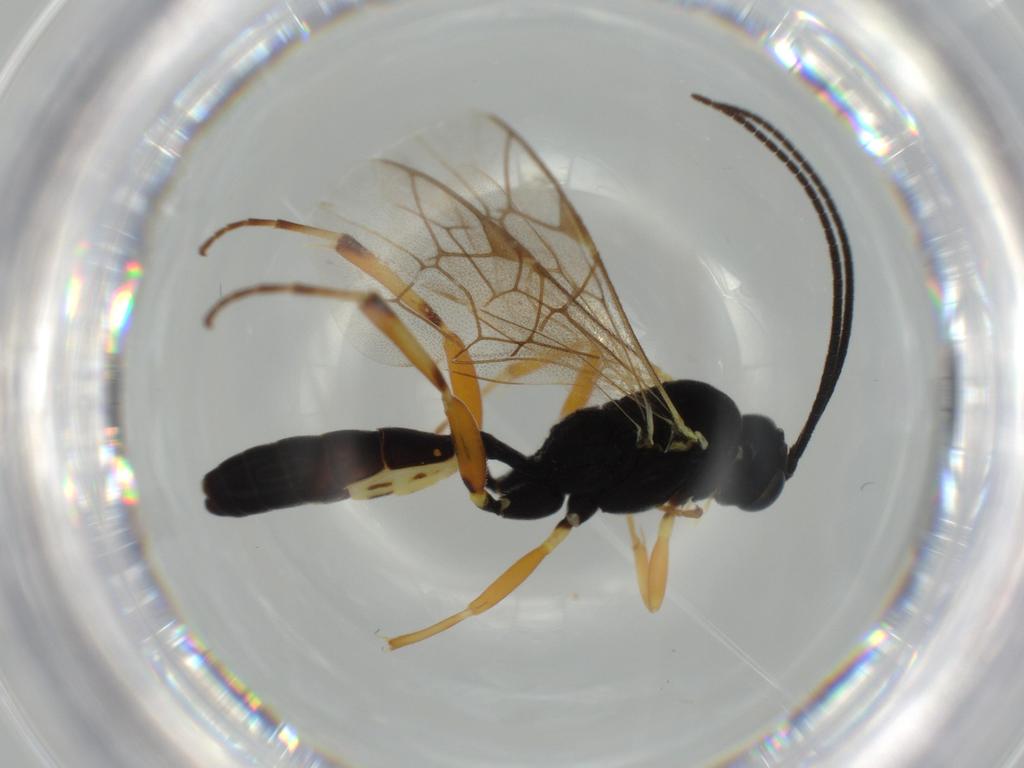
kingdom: Animalia
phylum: Arthropoda
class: Insecta
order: Hymenoptera
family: Ichneumonidae
